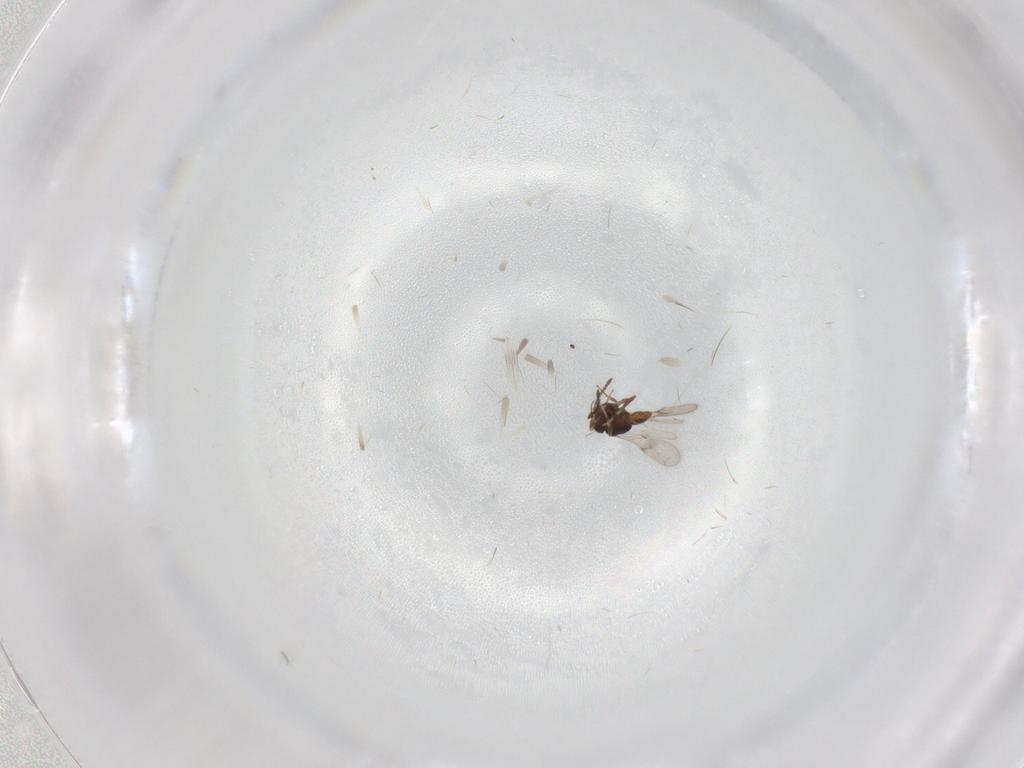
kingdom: Animalia
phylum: Arthropoda
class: Insecta
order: Hymenoptera
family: Scelionidae
